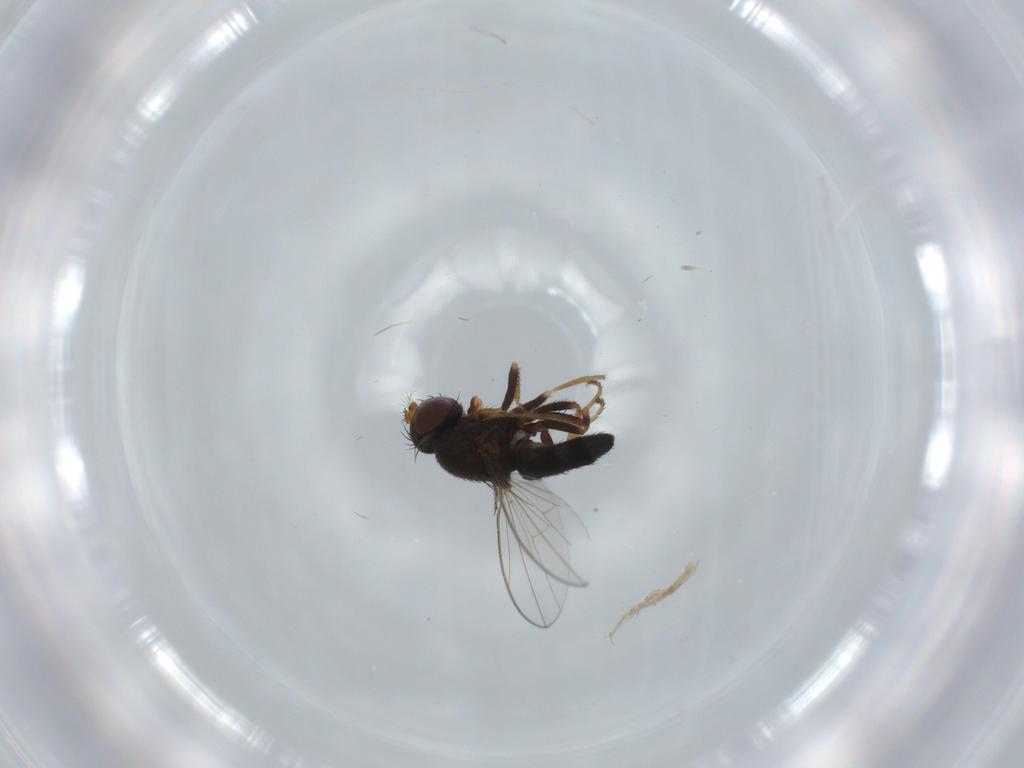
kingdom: Animalia
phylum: Arthropoda
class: Insecta
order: Diptera
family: Ephydridae
